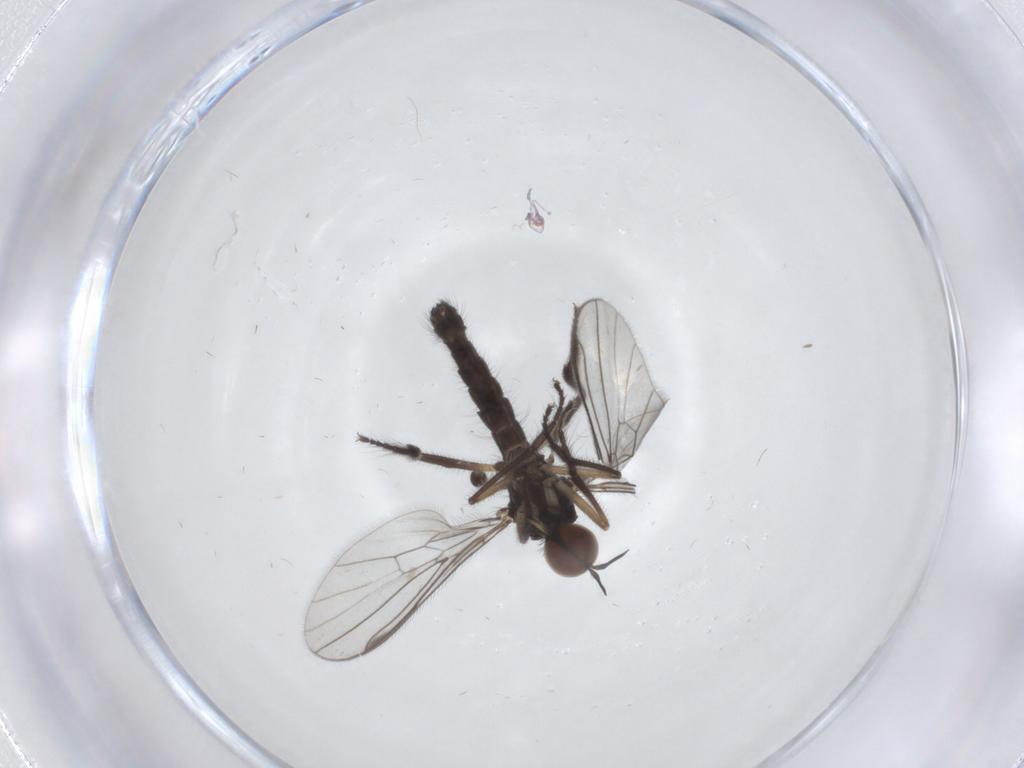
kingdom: Animalia
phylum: Arthropoda
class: Insecta
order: Diptera
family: Empididae
